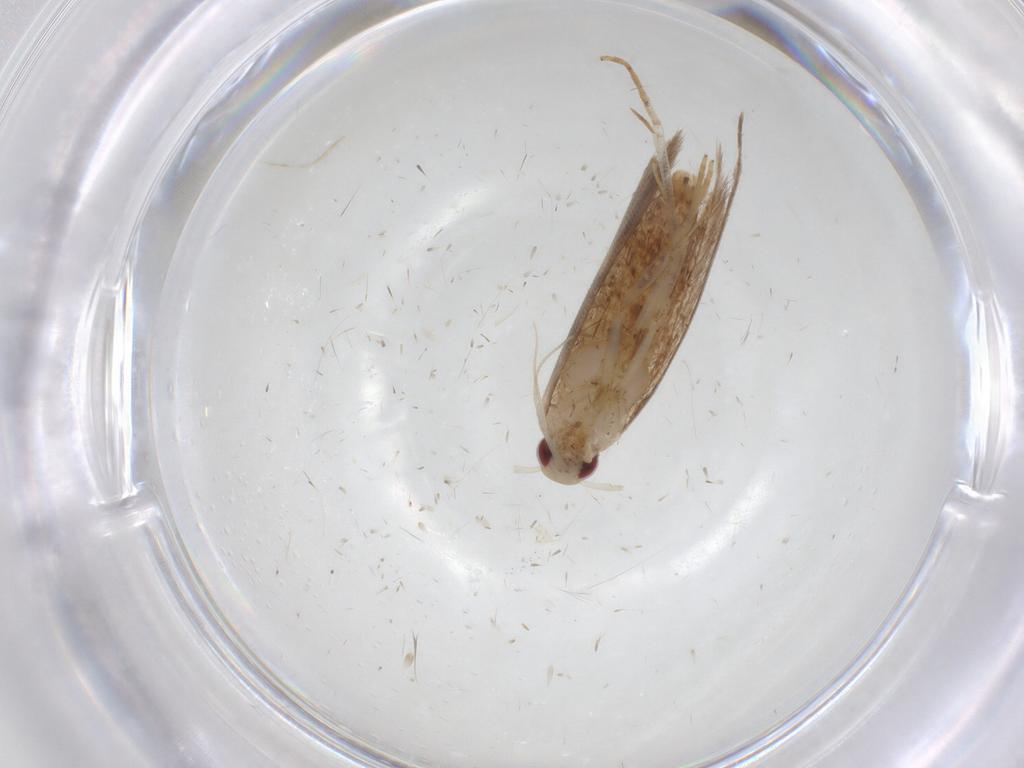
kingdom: Animalia
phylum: Arthropoda
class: Insecta
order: Lepidoptera
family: Cosmopterigidae
